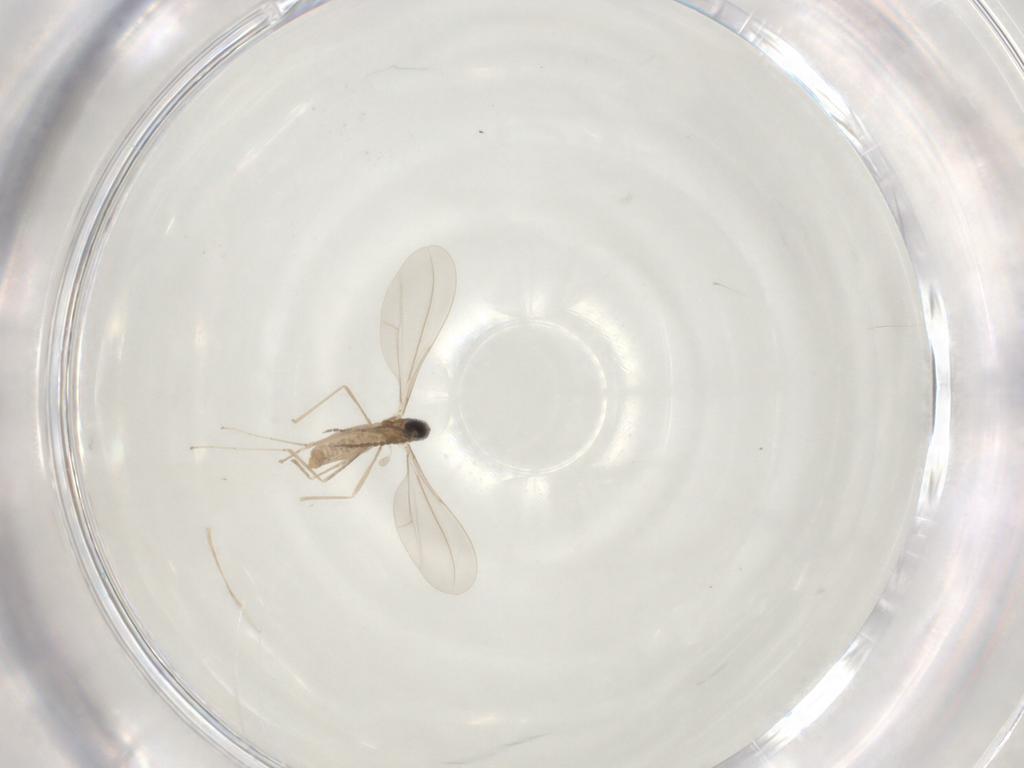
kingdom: Animalia
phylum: Arthropoda
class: Insecta
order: Diptera
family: Cecidomyiidae
